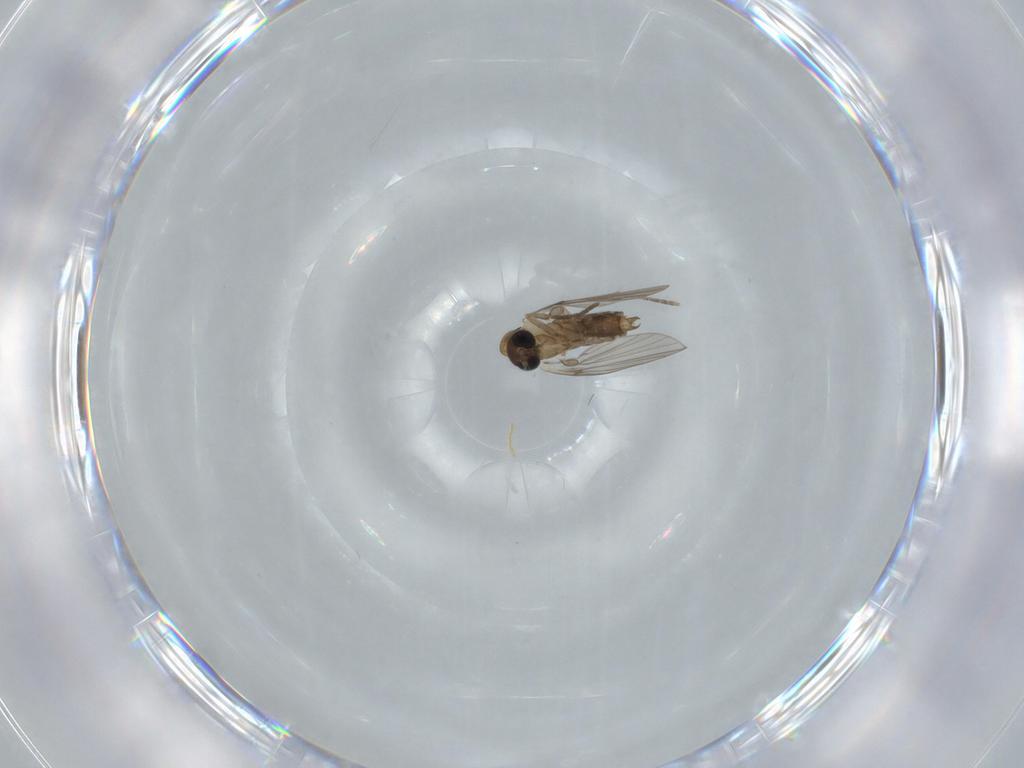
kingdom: Animalia
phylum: Arthropoda
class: Insecta
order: Diptera
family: Psychodidae
